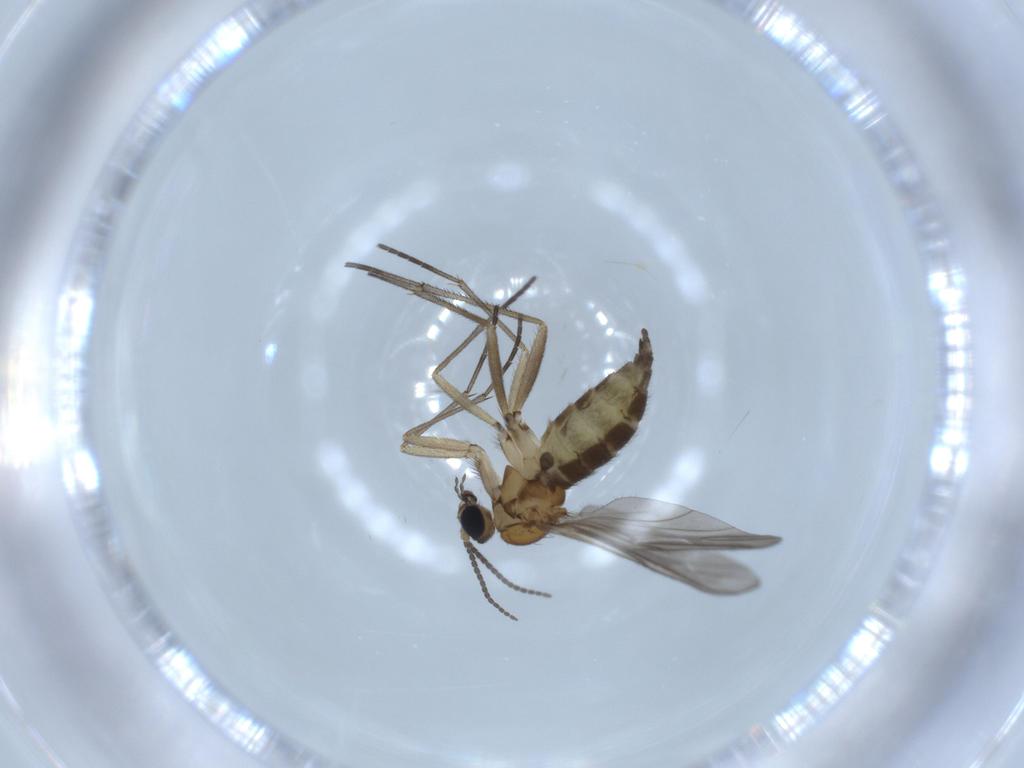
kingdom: Animalia
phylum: Arthropoda
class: Insecta
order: Diptera
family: Sciaridae
